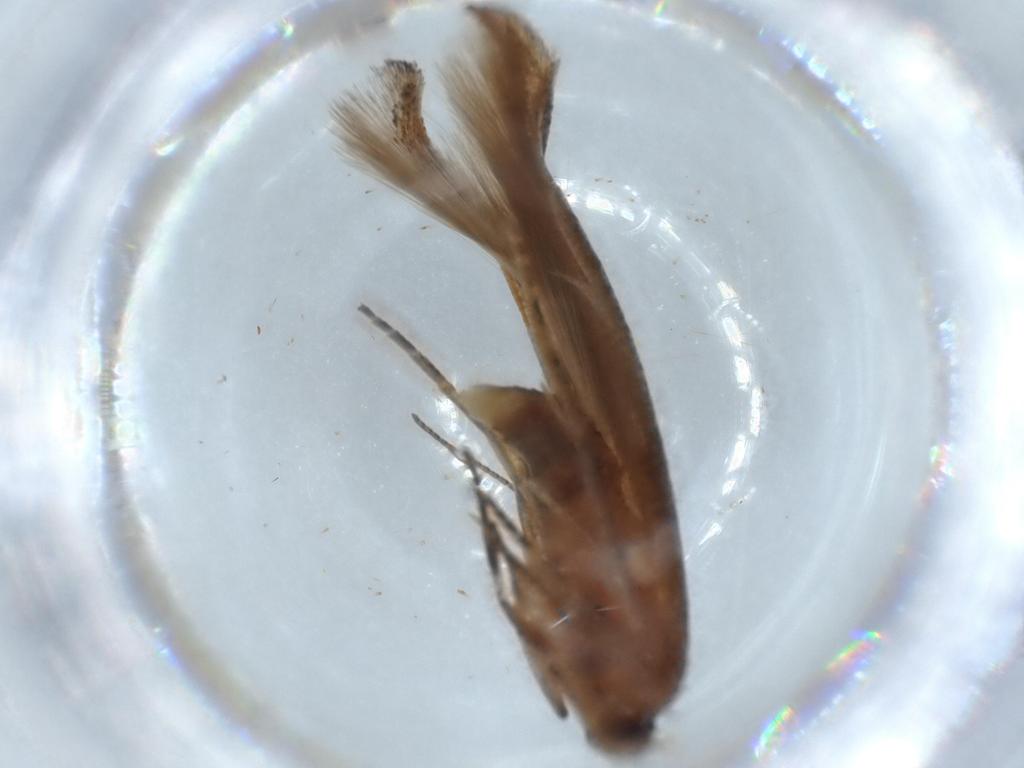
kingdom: Animalia
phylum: Arthropoda
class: Insecta
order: Lepidoptera
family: Stathmopodidae
